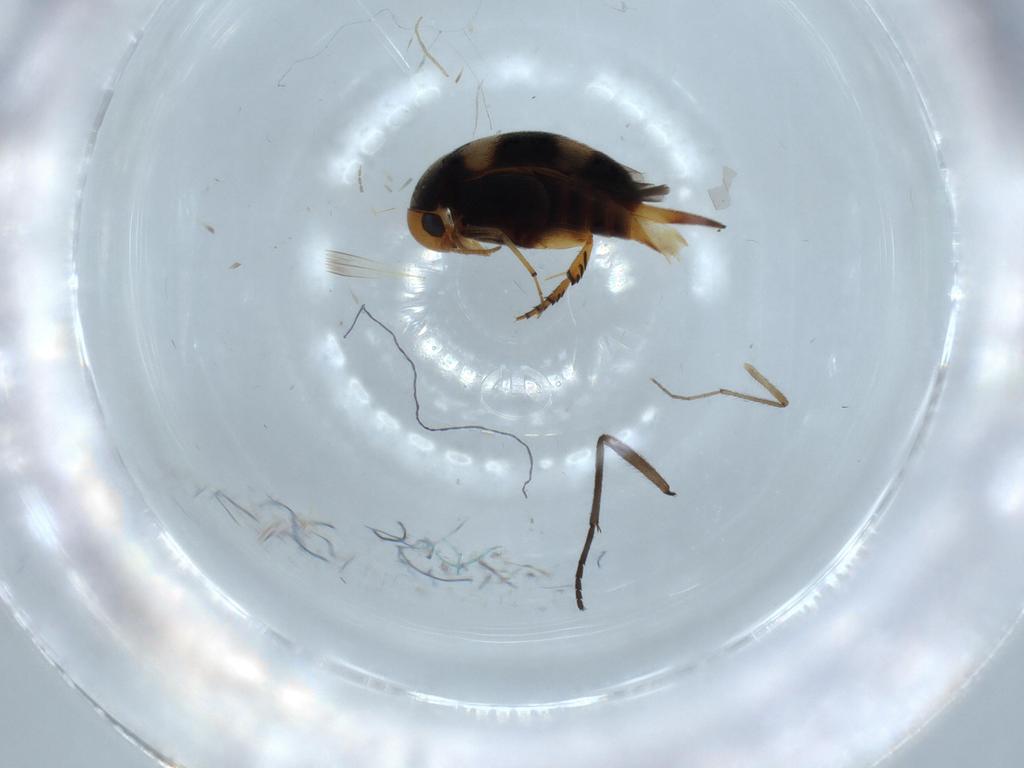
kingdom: Animalia
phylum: Arthropoda
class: Insecta
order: Coleoptera
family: Mordellidae
